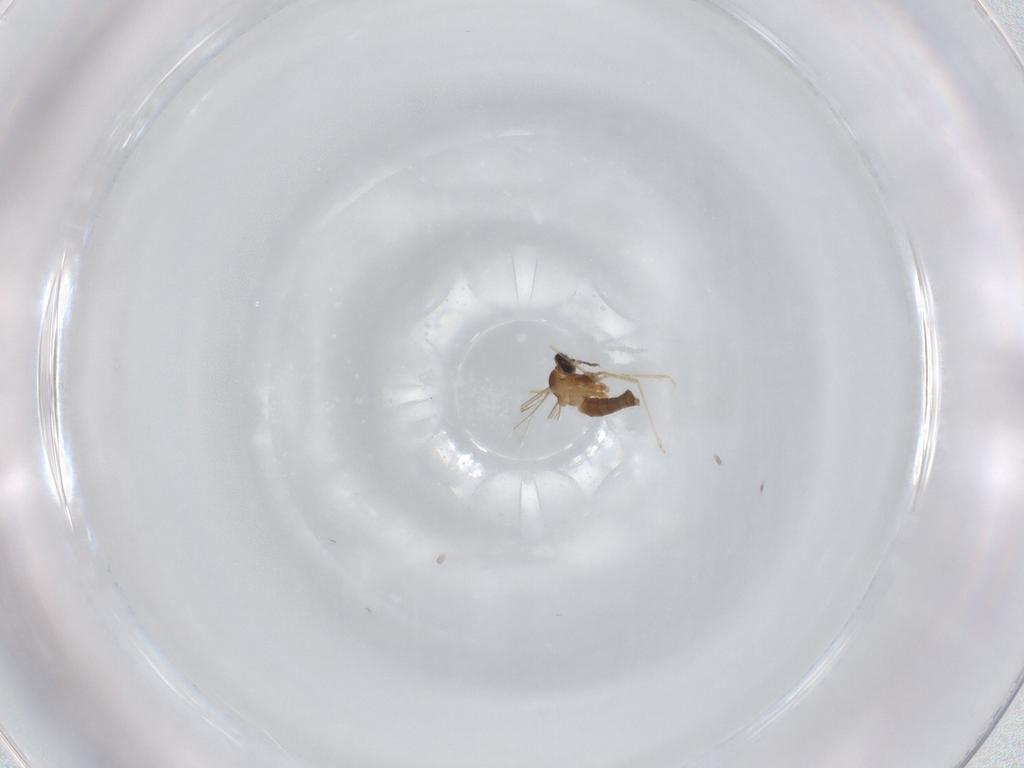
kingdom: Animalia
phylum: Arthropoda
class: Insecta
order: Diptera
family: Cecidomyiidae
